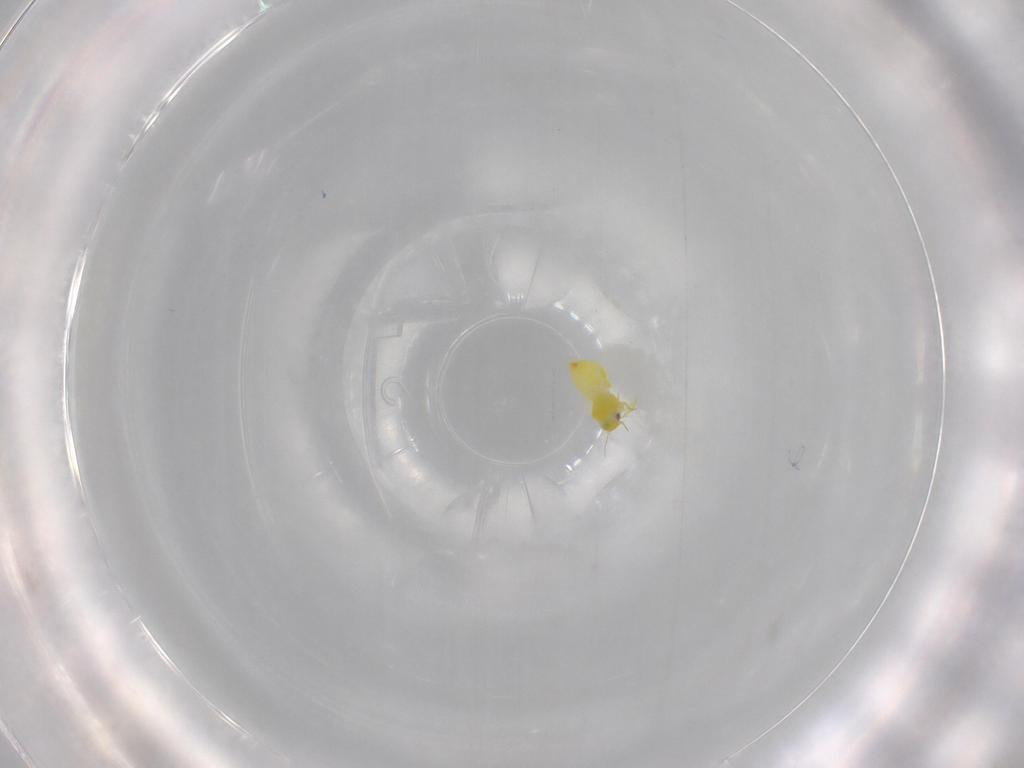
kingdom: Animalia
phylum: Arthropoda
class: Insecta
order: Hemiptera
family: Aleyrodidae
